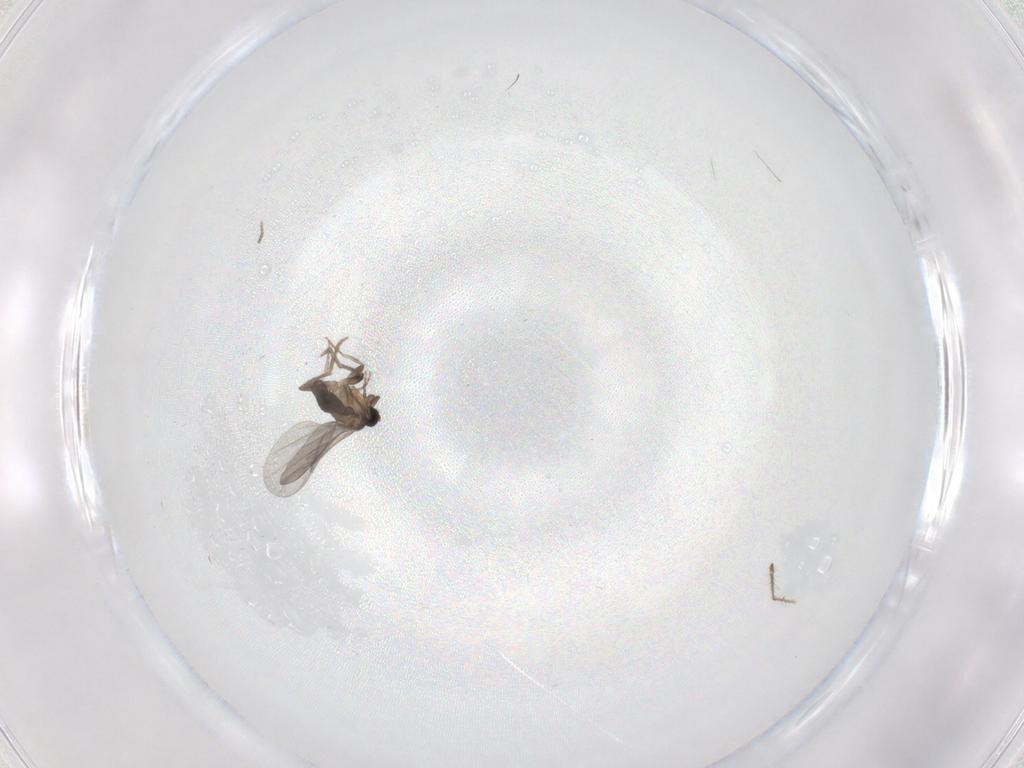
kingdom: Animalia
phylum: Arthropoda
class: Insecta
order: Diptera
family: Cecidomyiidae
